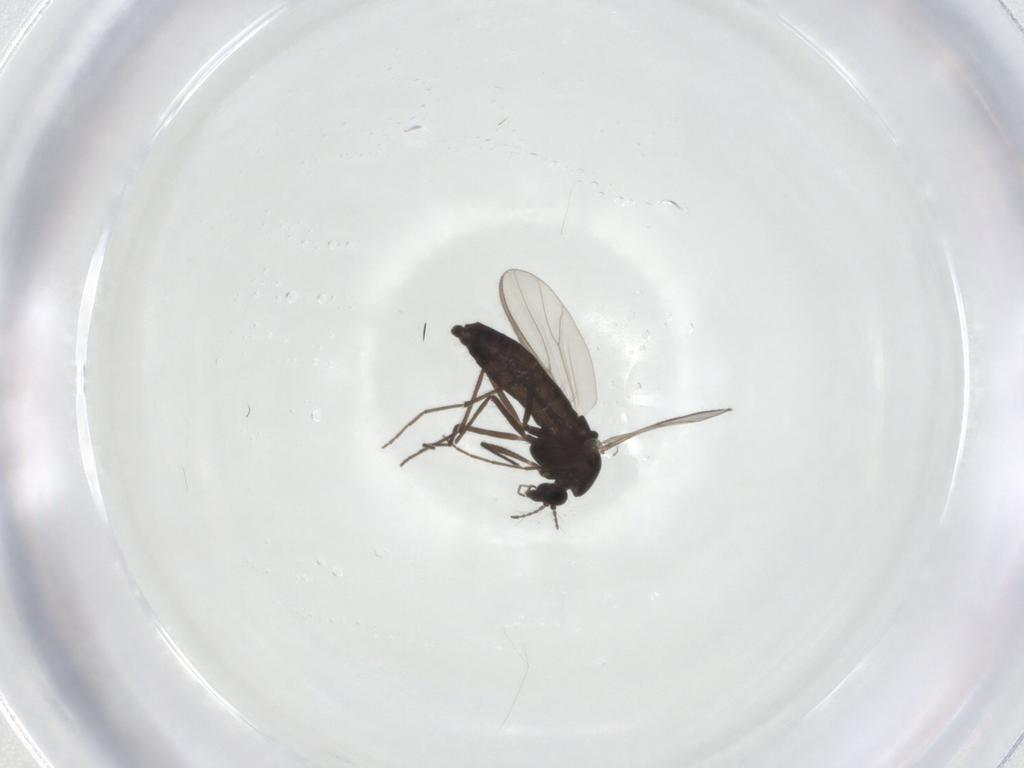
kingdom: Animalia
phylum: Arthropoda
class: Insecta
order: Diptera
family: Chironomidae
